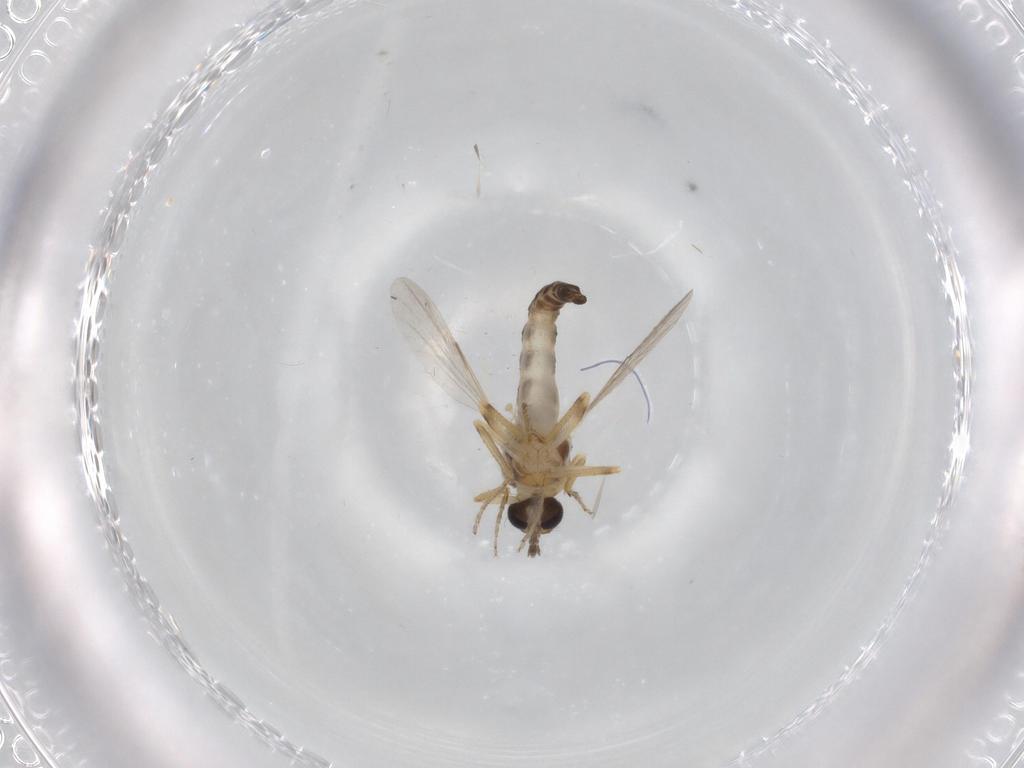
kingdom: Animalia
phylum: Arthropoda
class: Insecta
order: Diptera
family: Ceratopogonidae
